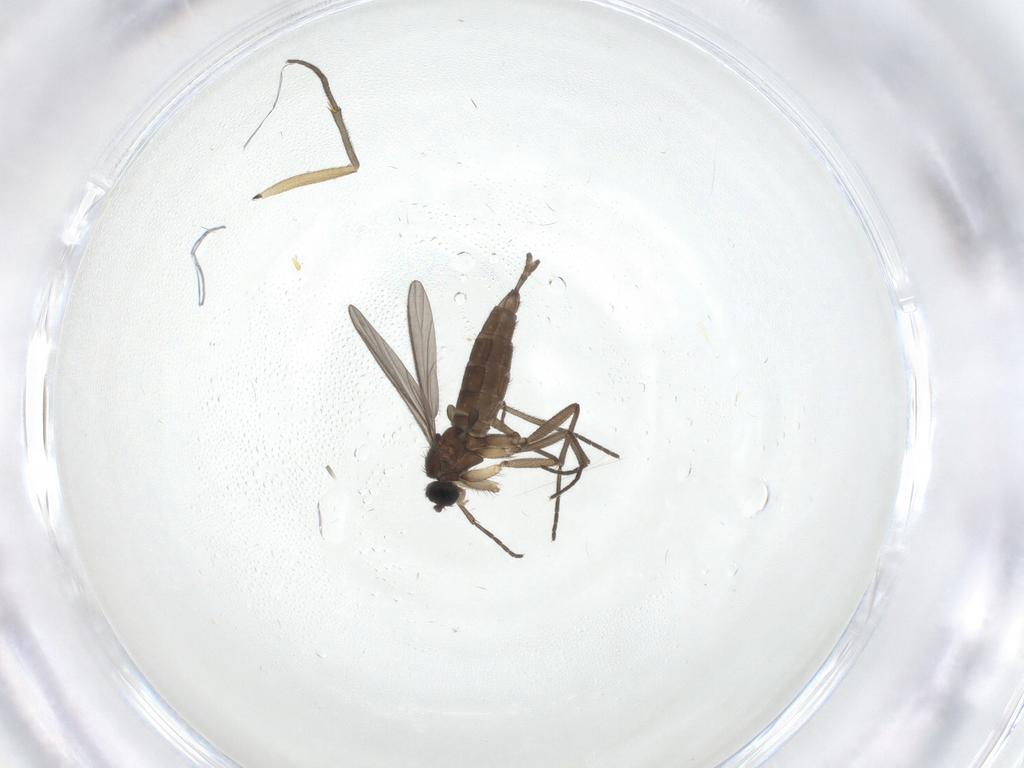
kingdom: Animalia
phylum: Arthropoda
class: Insecta
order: Diptera
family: Sciaridae
